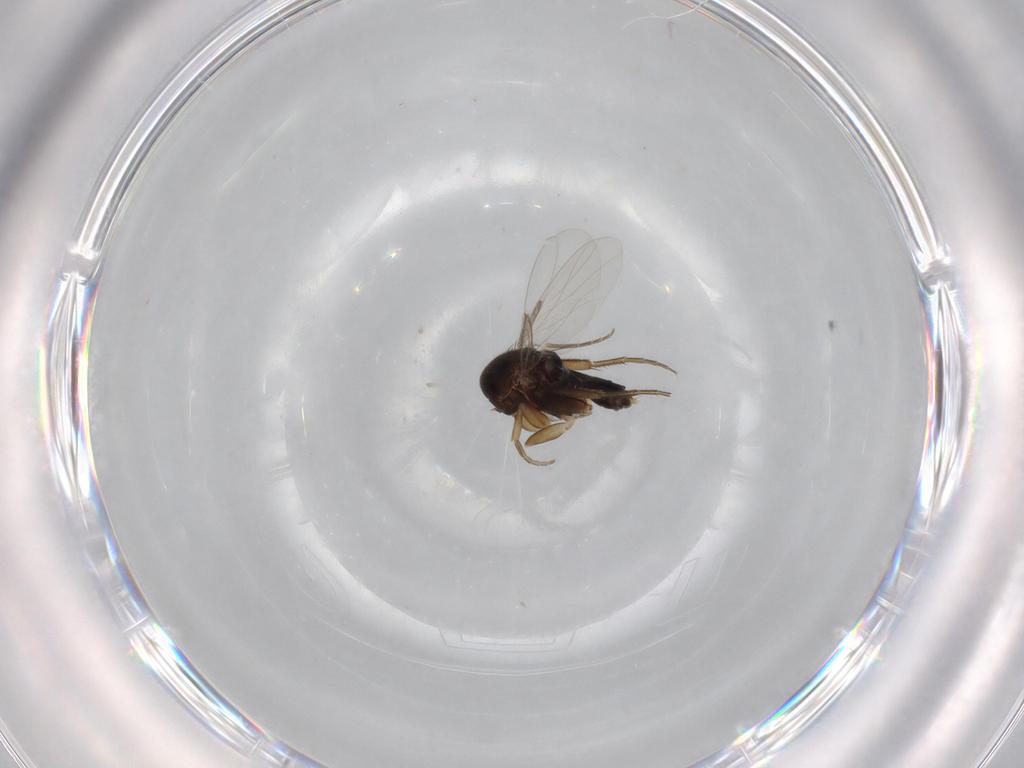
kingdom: Animalia
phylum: Arthropoda
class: Insecta
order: Diptera
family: Phoridae
